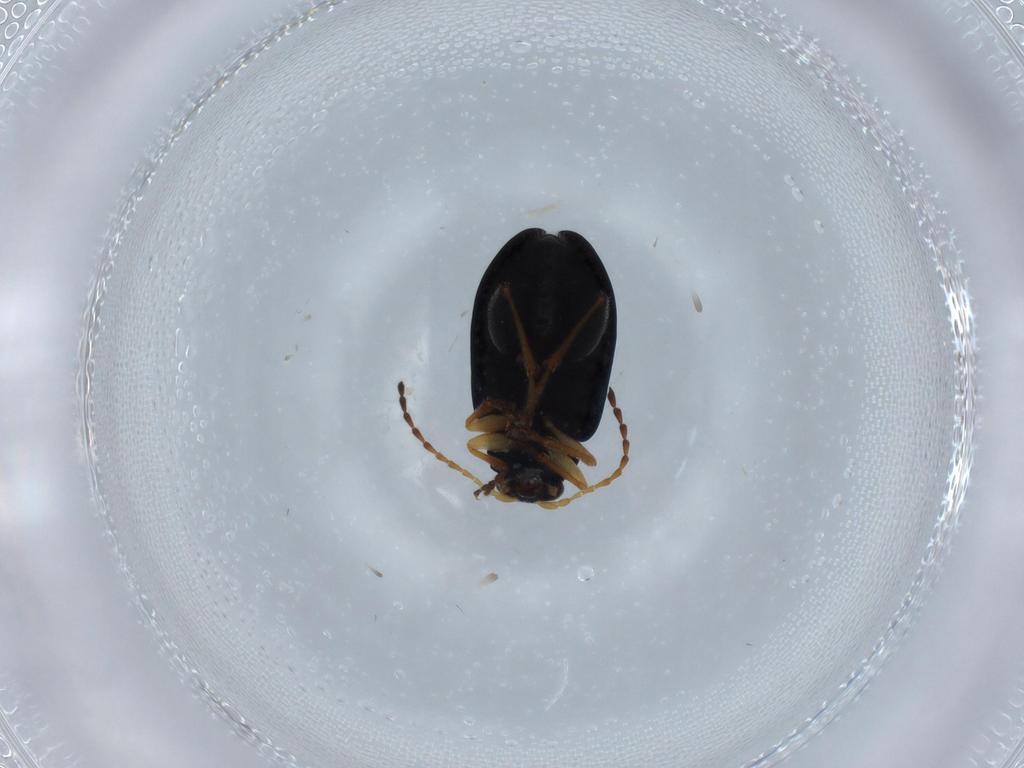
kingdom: Animalia
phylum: Arthropoda
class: Insecta
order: Coleoptera
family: Chrysomelidae
